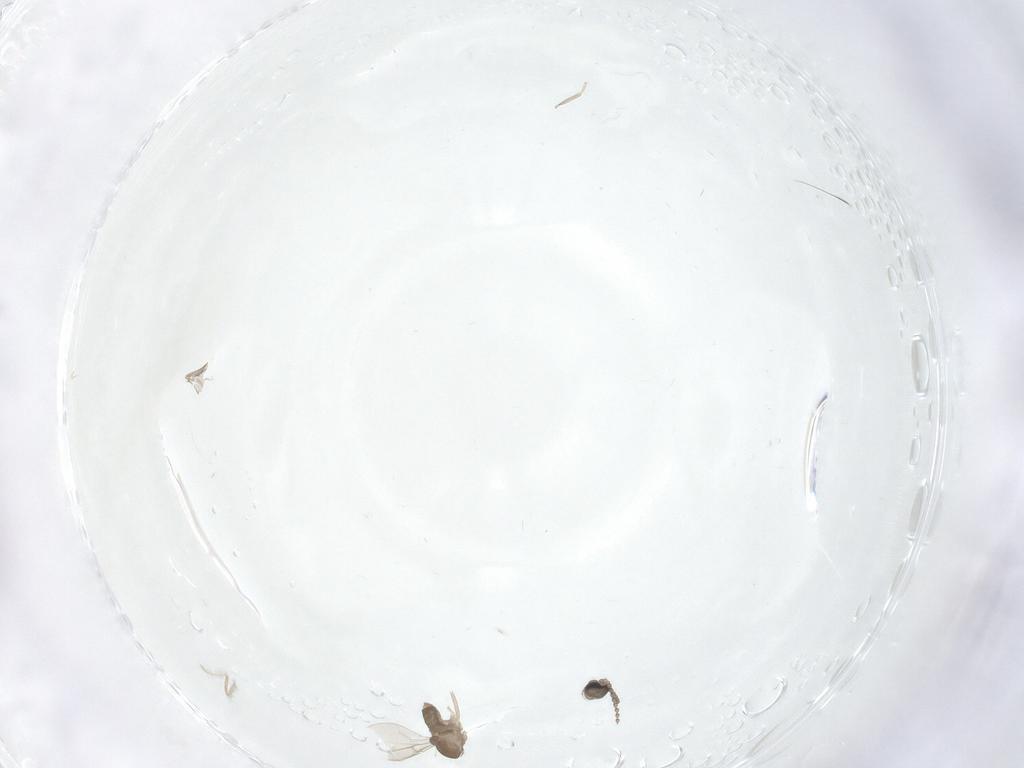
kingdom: Animalia
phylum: Arthropoda
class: Insecta
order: Diptera
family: Cecidomyiidae
